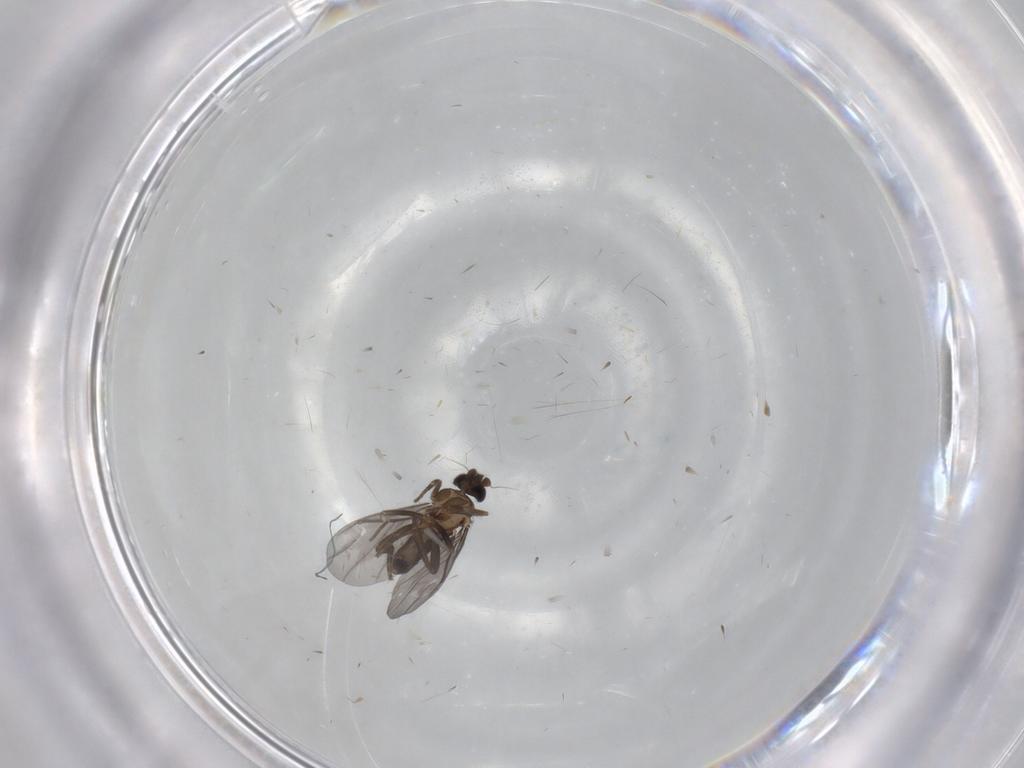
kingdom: Animalia
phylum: Arthropoda
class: Insecta
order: Diptera
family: Phoridae
